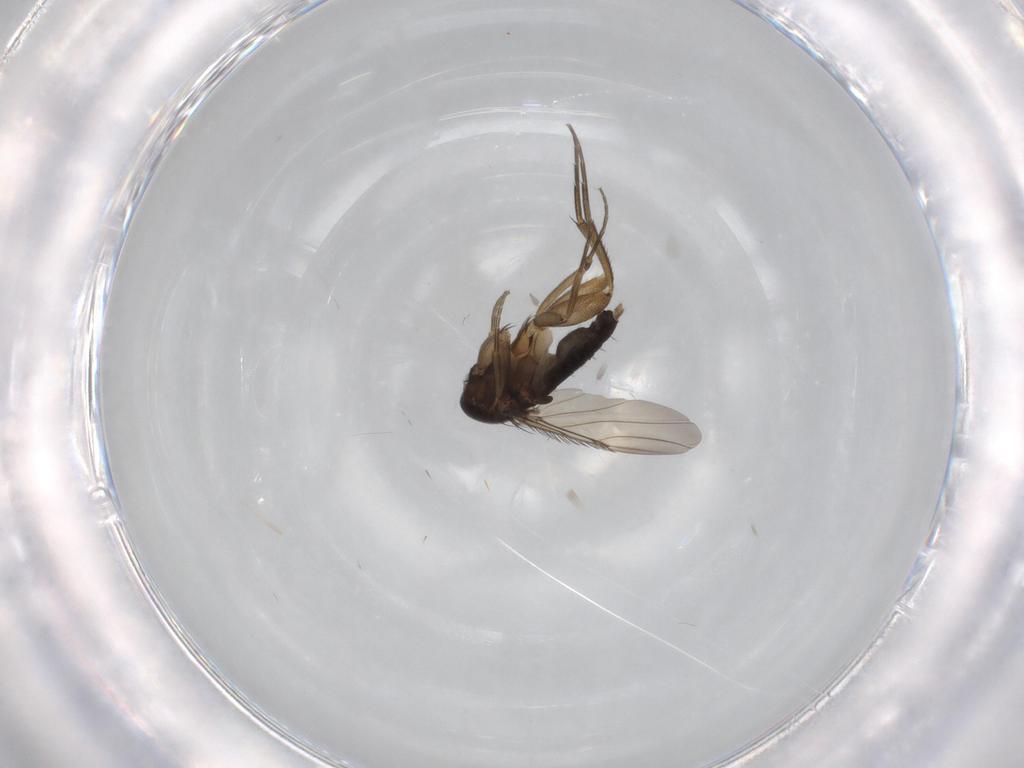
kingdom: Animalia
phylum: Arthropoda
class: Insecta
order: Diptera
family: Phoridae
